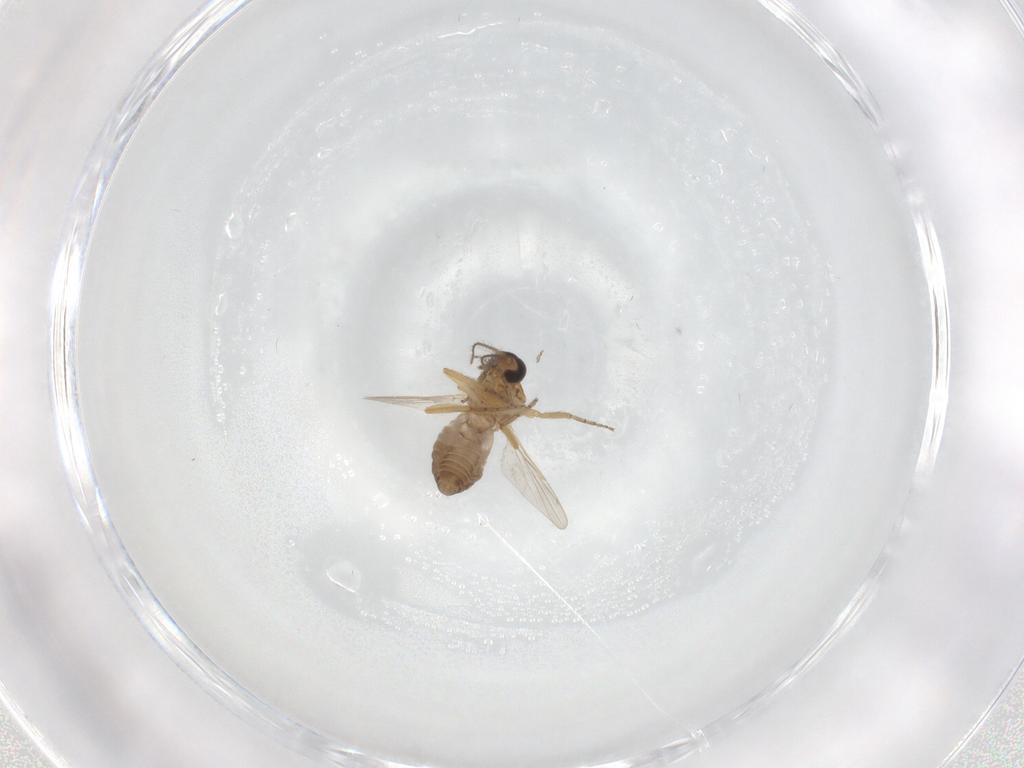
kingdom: Animalia
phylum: Arthropoda
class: Insecta
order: Diptera
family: Ceratopogonidae
